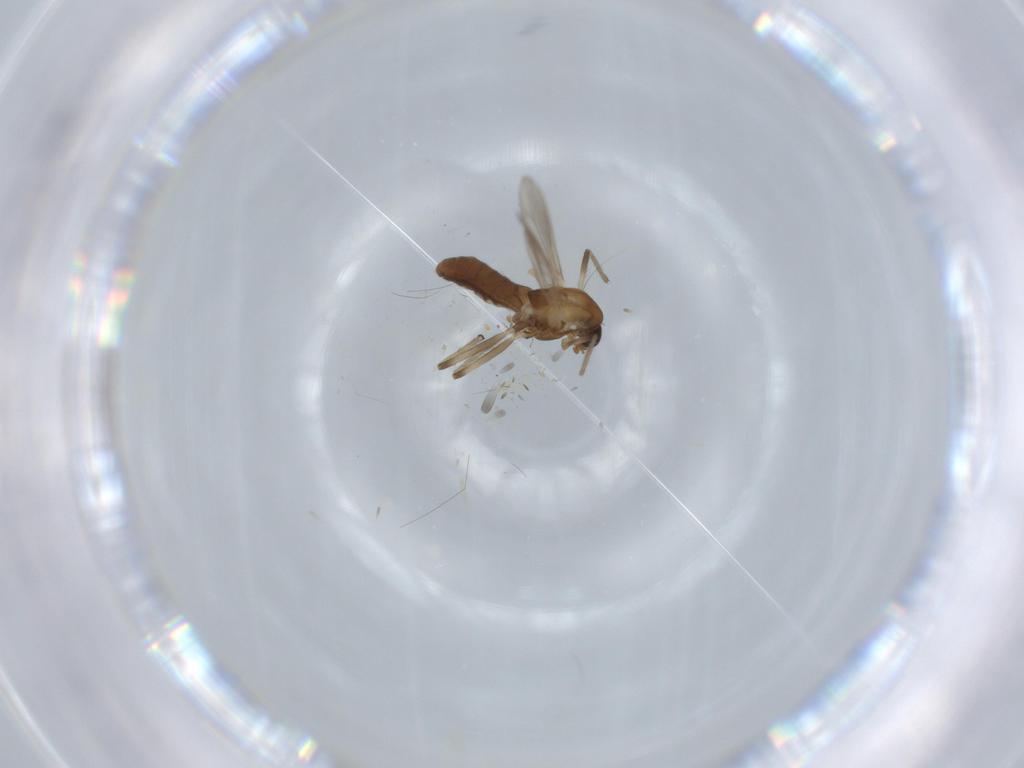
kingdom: Animalia
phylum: Arthropoda
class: Insecta
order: Diptera
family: Chironomidae
